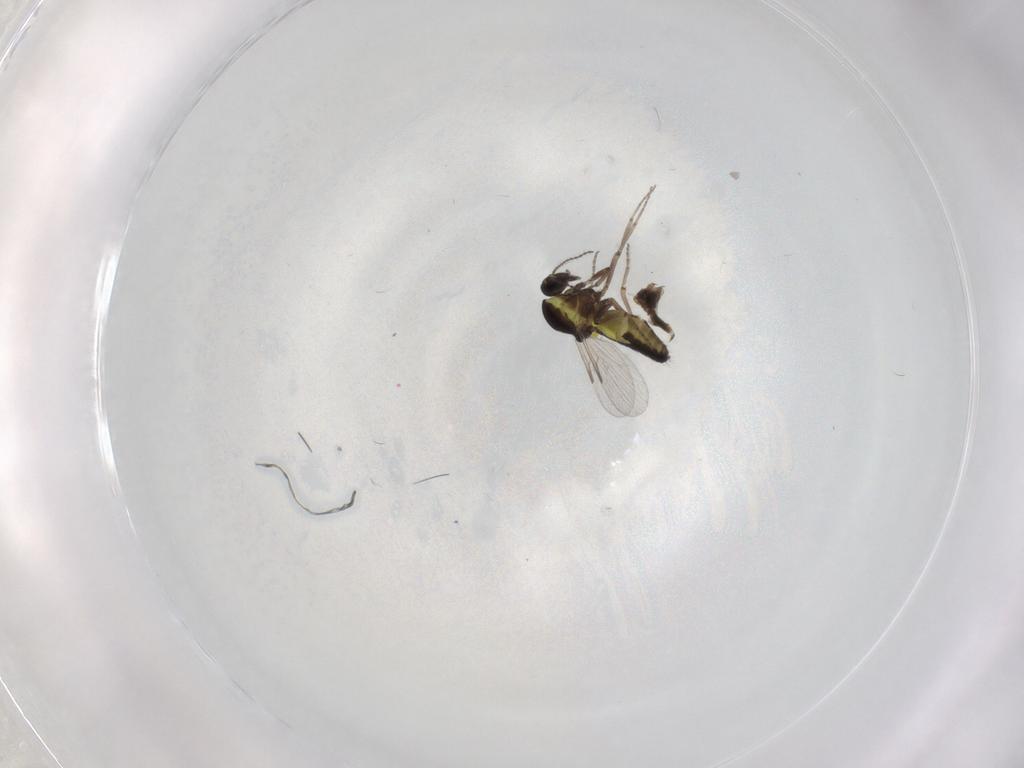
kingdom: Animalia
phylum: Arthropoda
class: Insecta
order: Diptera
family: Ceratopogonidae
